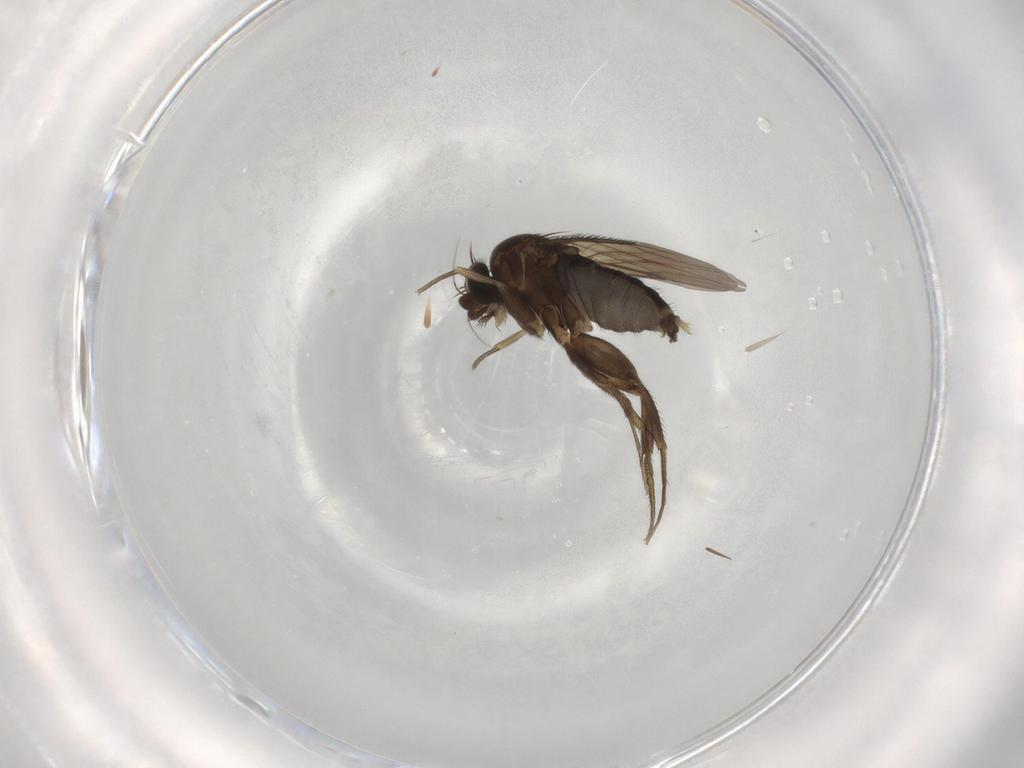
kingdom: Animalia
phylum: Arthropoda
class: Insecta
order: Diptera
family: Phoridae
